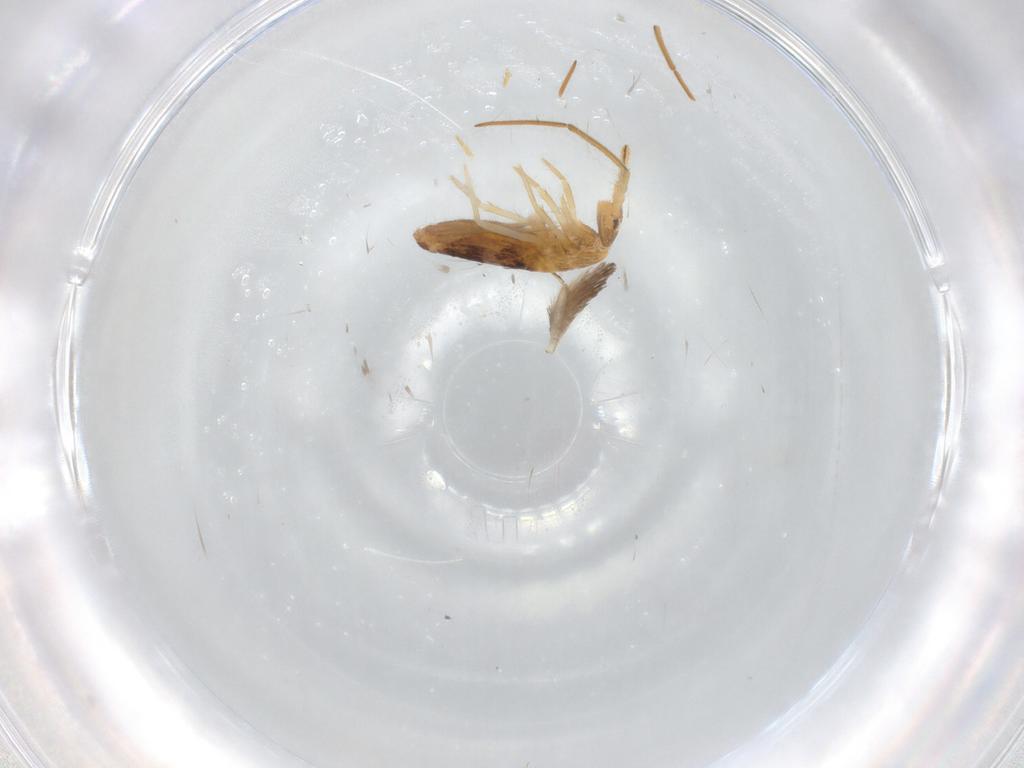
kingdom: Animalia
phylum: Arthropoda
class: Collembola
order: Entomobryomorpha
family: Entomobryidae
